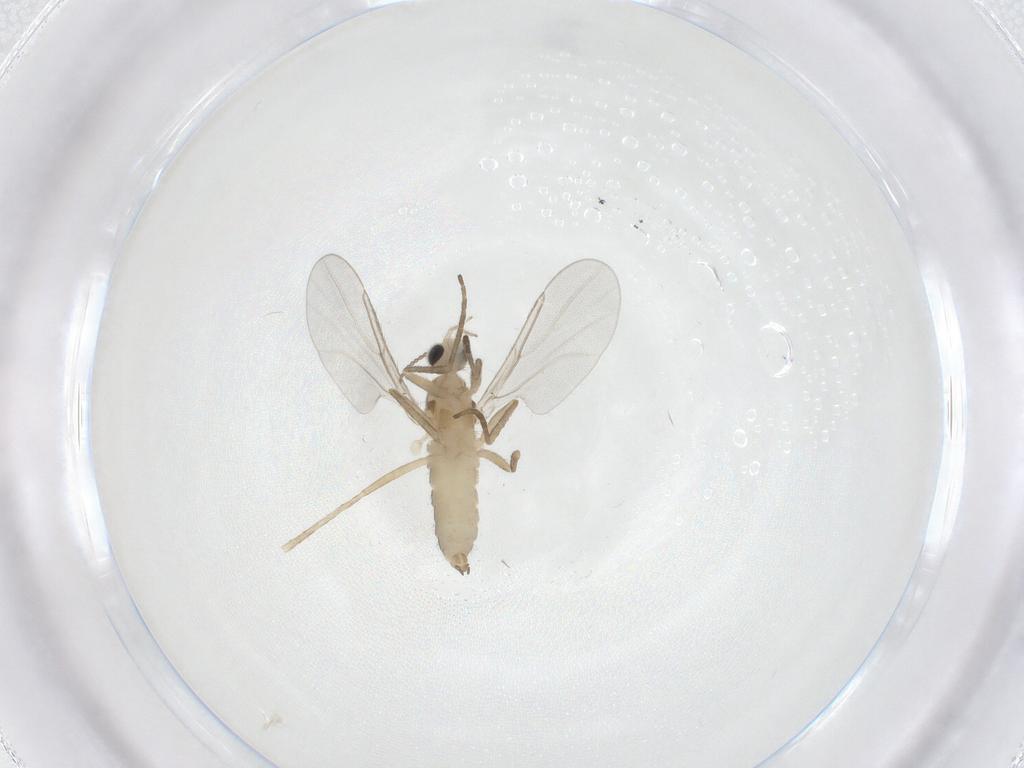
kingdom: Animalia
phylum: Arthropoda
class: Insecta
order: Diptera
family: Cecidomyiidae
